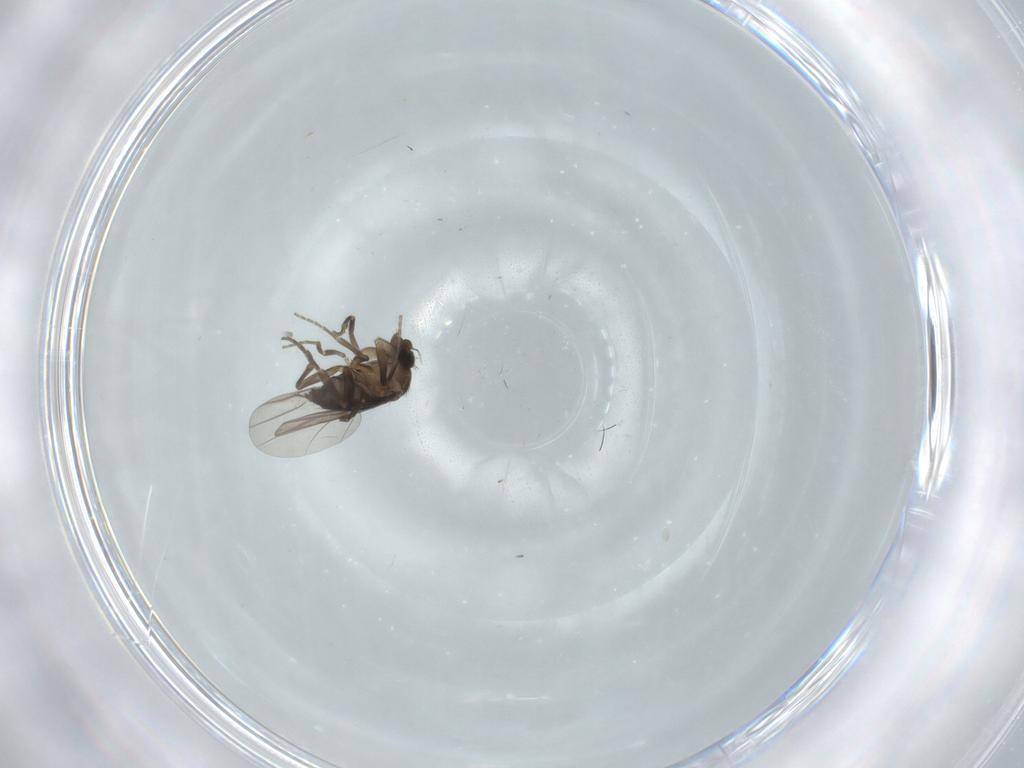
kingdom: Animalia
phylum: Arthropoda
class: Insecta
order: Diptera
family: Phoridae
